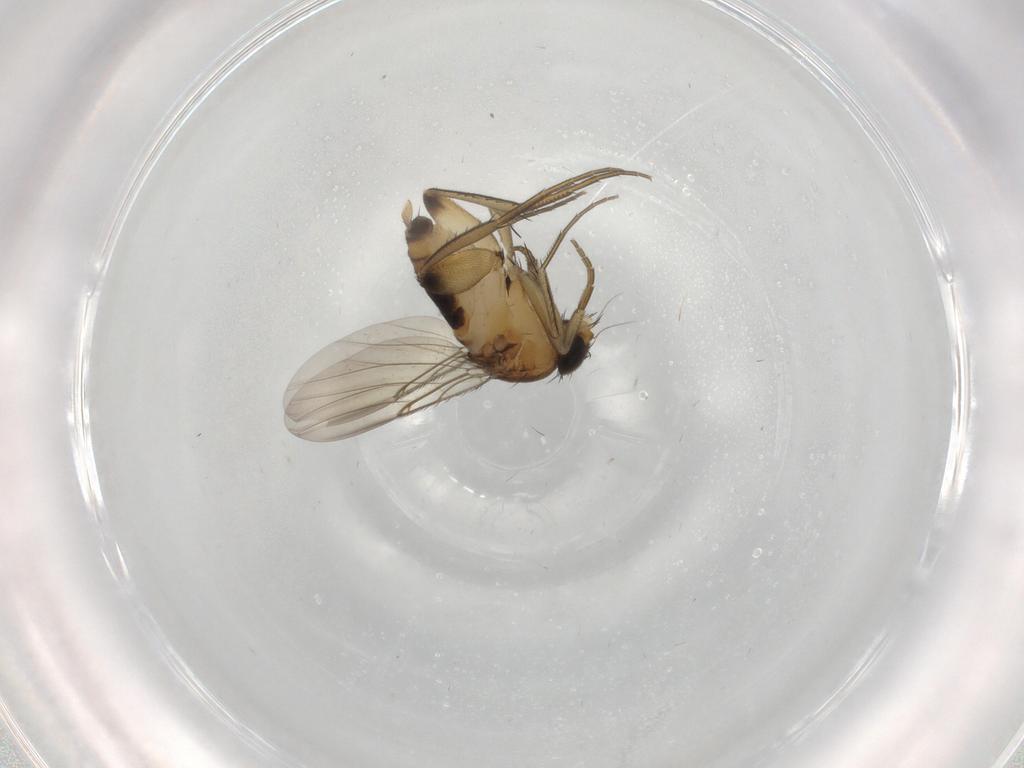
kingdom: Animalia
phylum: Arthropoda
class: Insecta
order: Diptera
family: Phoridae
